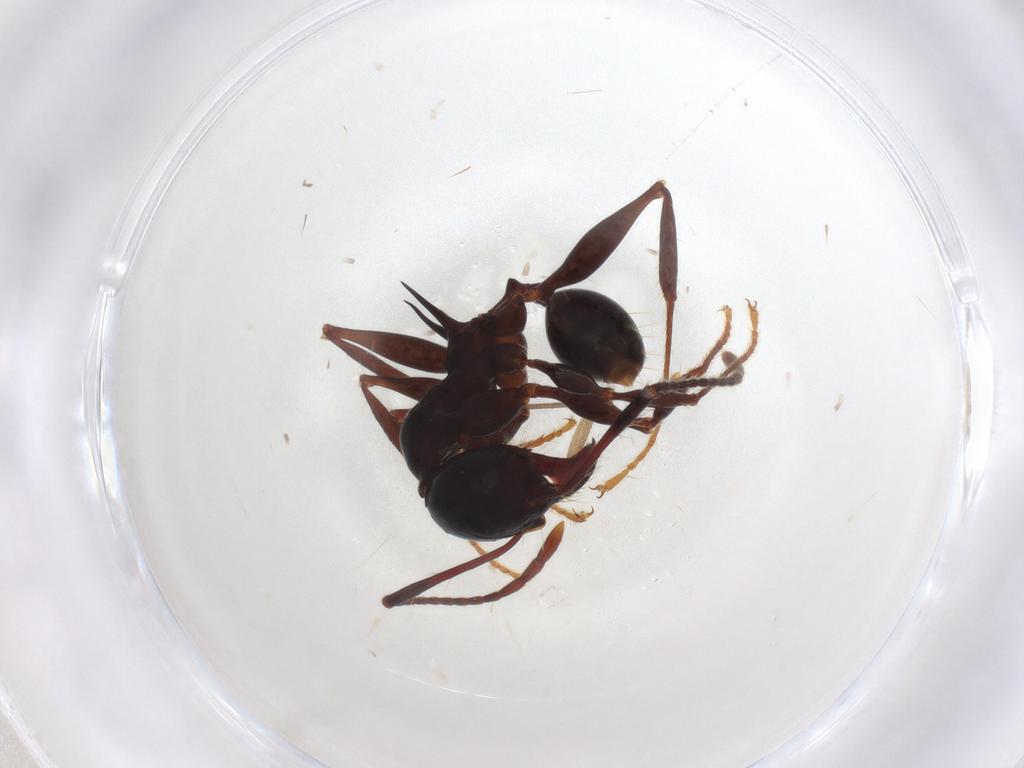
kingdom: Animalia
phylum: Arthropoda
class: Insecta
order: Hymenoptera
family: Formicidae
